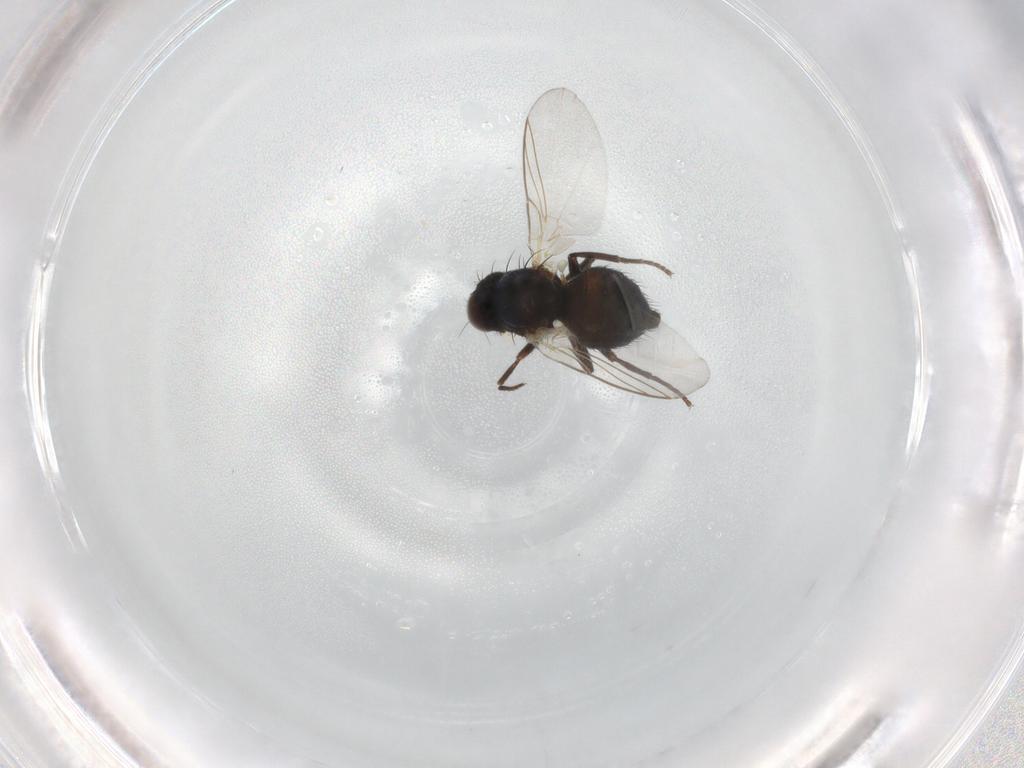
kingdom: Animalia
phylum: Arthropoda
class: Insecta
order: Diptera
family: Agromyzidae
